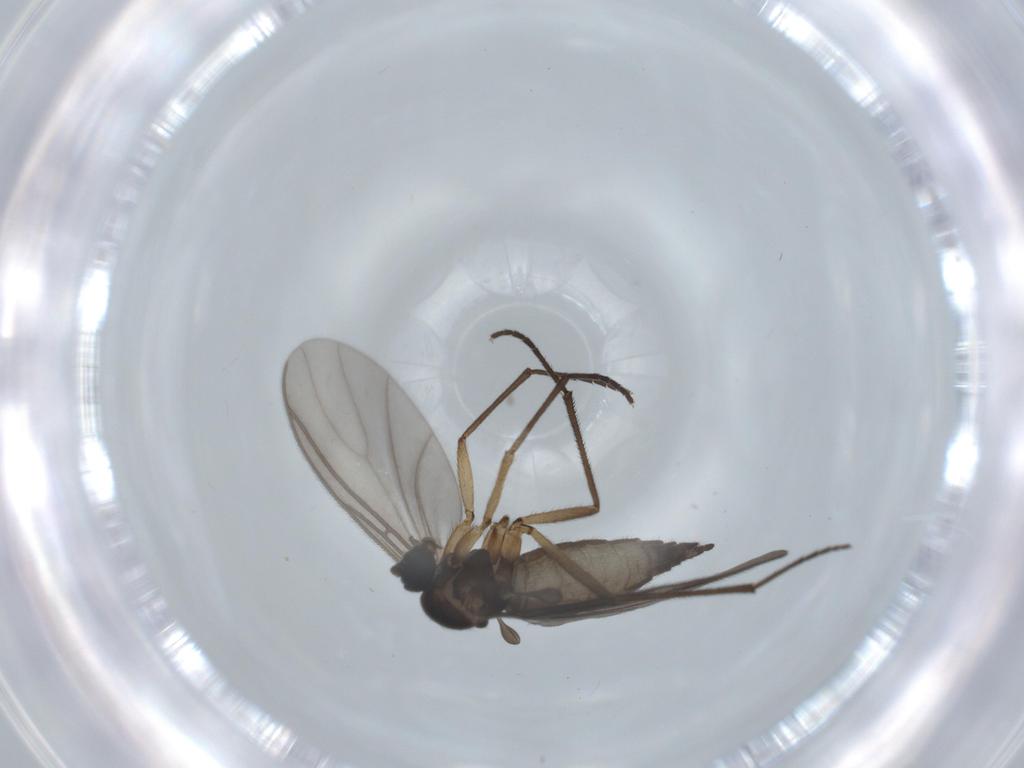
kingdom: Animalia
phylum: Arthropoda
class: Insecta
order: Diptera
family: Sciaridae
